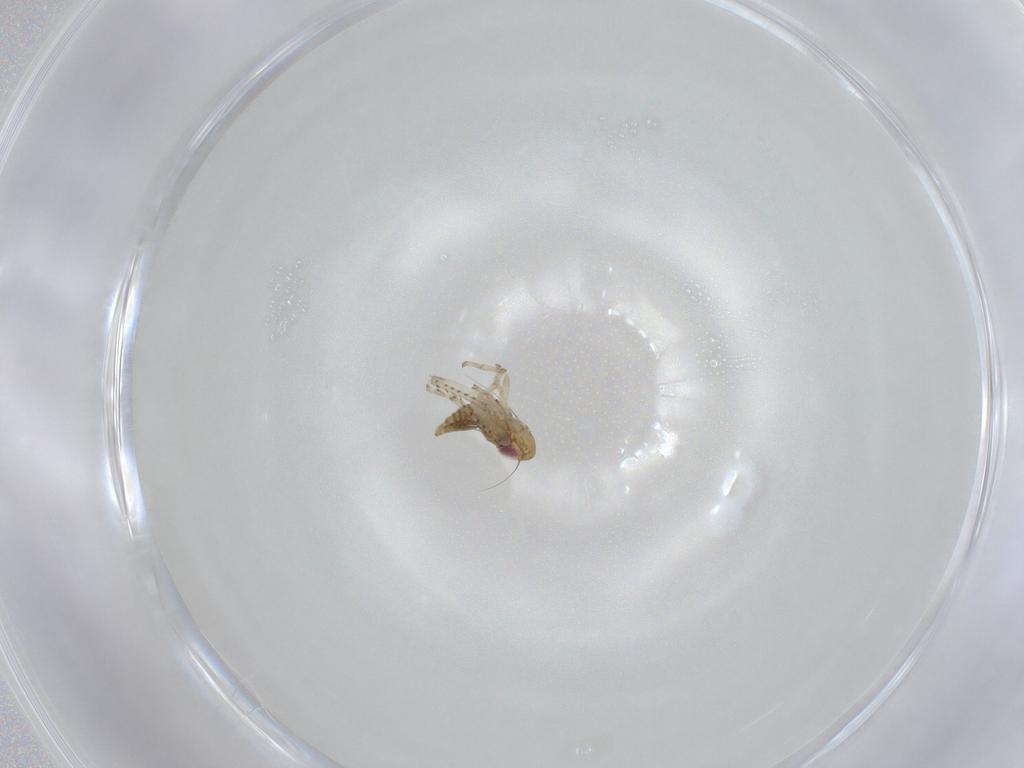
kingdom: Animalia
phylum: Arthropoda
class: Insecta
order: Hemiptera
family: Cicadellidae
